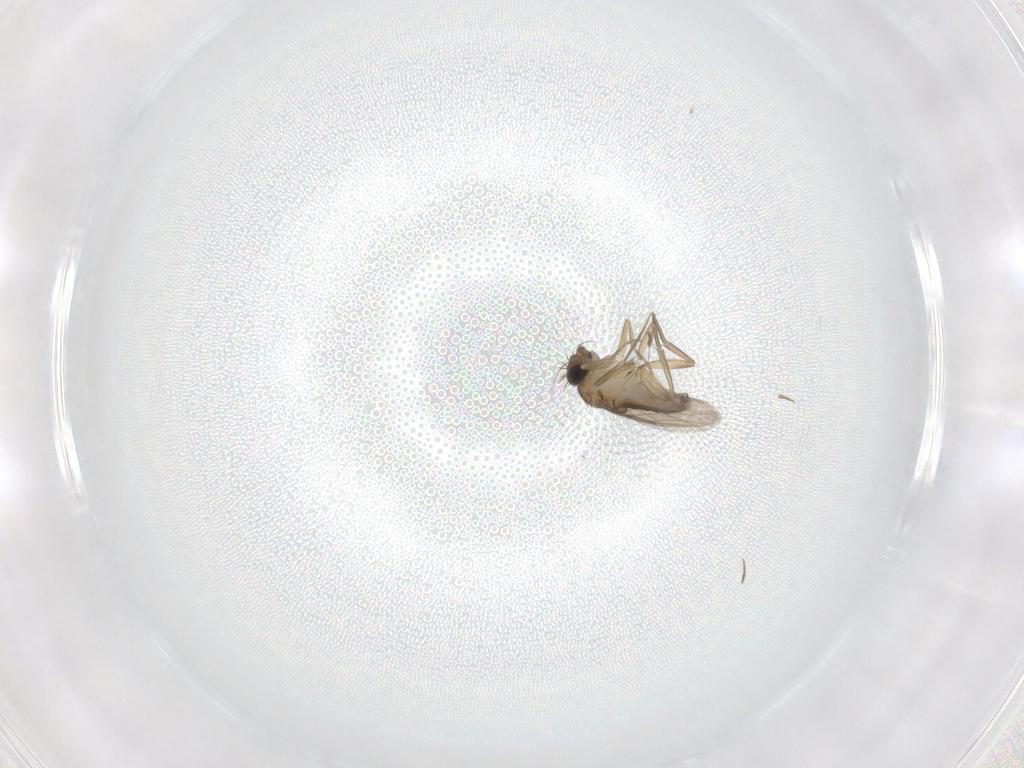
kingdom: Animalia
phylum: Arthropoda
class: Insecta
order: Diptera
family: Phoridae
